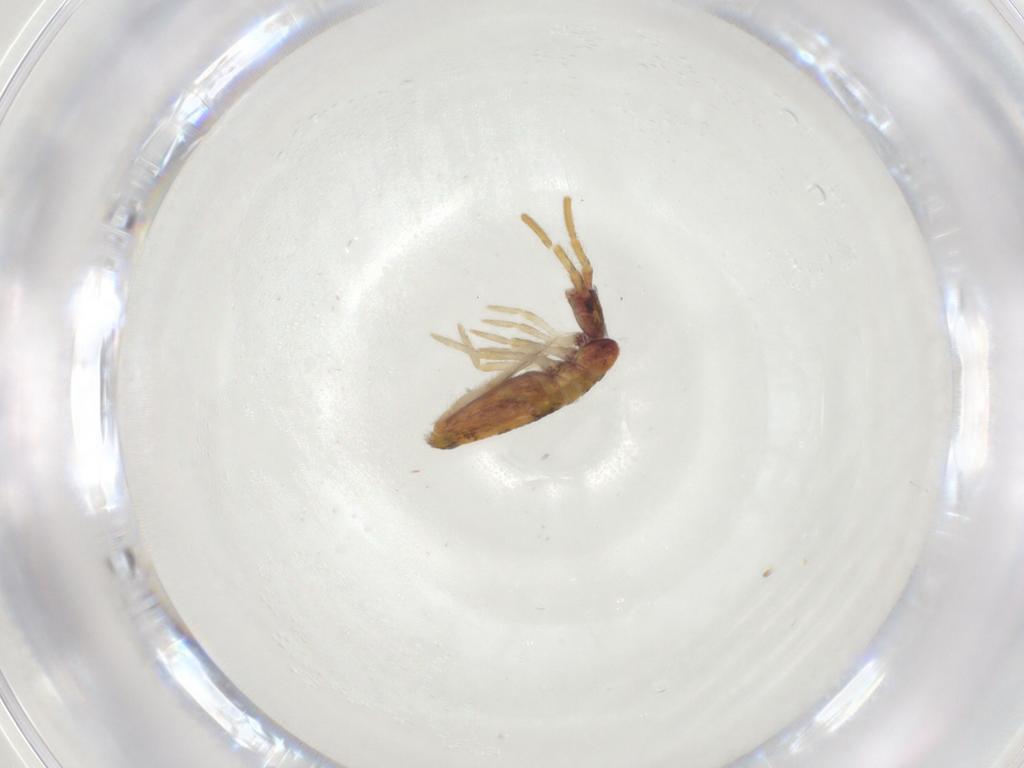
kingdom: Animalia
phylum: Arthropoda
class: Collembola
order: Entomobryomorpha
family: Entomobryidae
